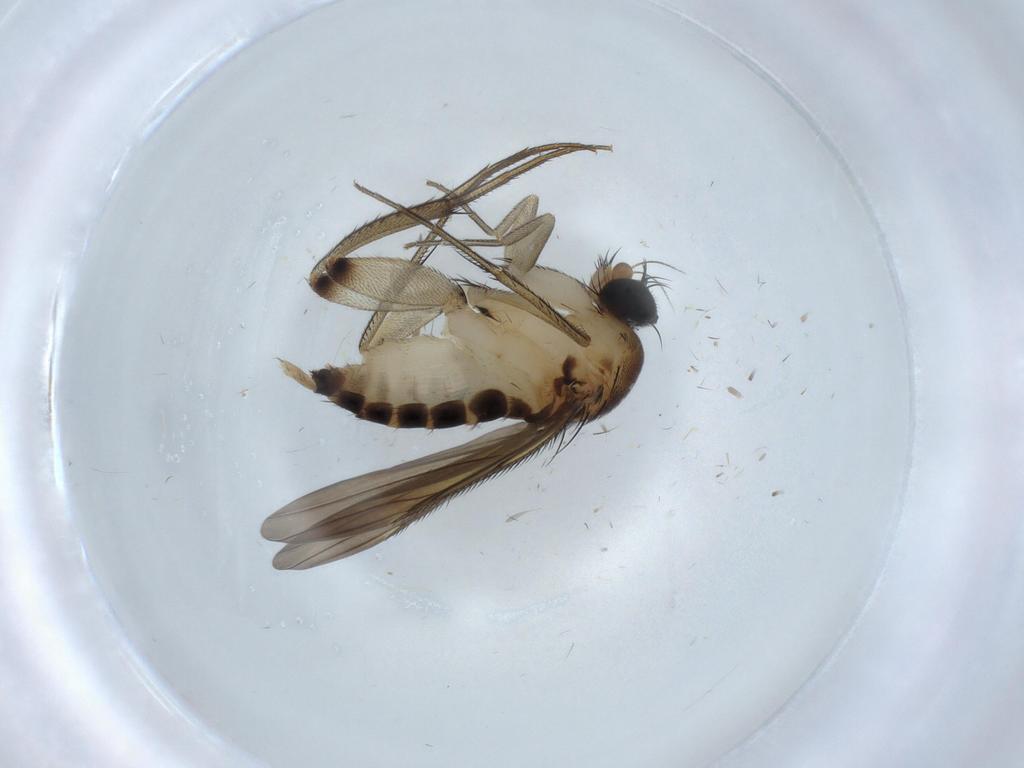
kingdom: Animalia
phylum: Arthropoda
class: Insecta
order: Diptera
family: Cecidomyiidae
